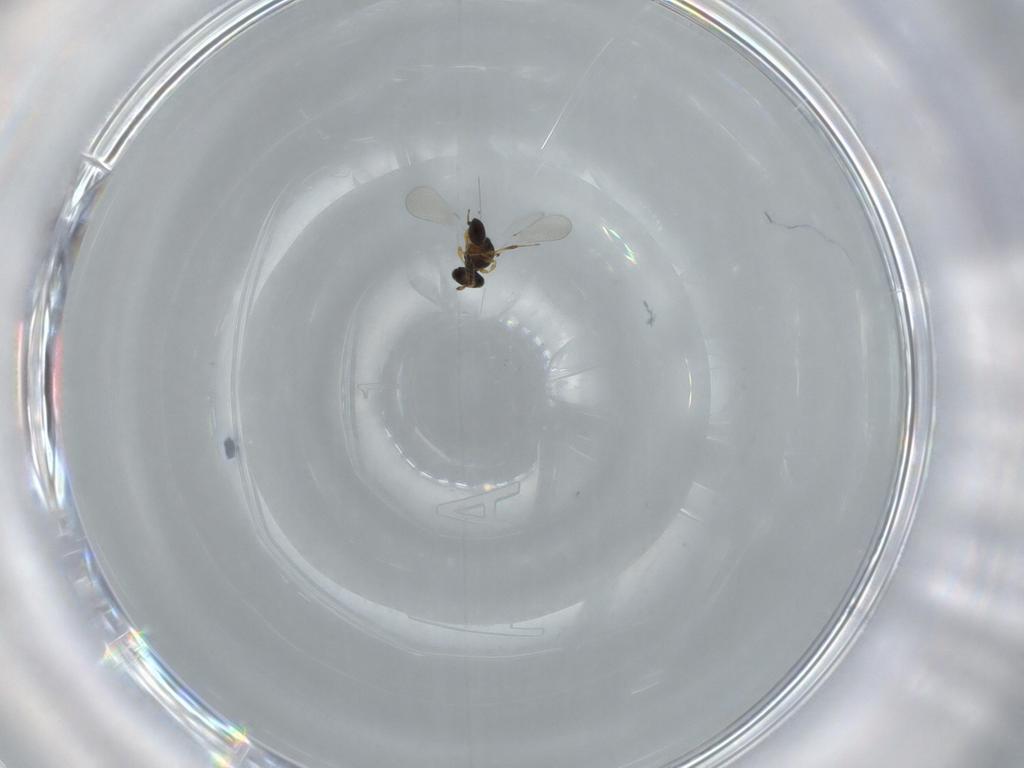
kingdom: Animalia
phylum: Arthropoda
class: Insecta
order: Hymenoptera
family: Platygastridae
